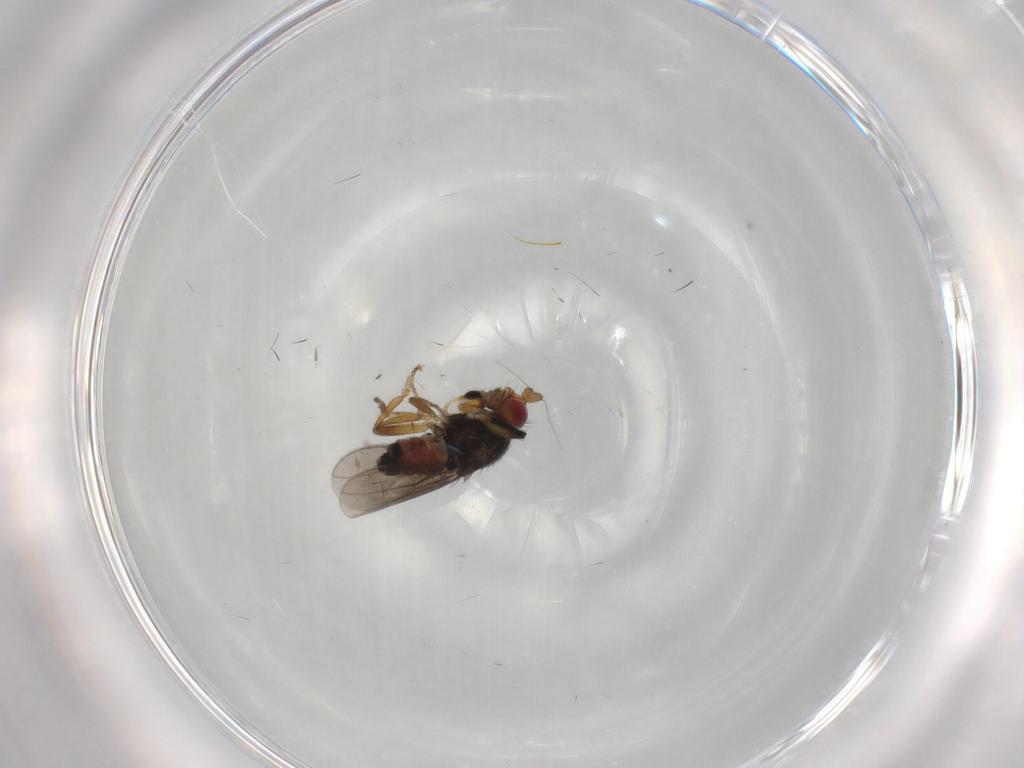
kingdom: Animalia
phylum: Arthropoda
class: Insecta
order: Diptera
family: Sphaeroceridae
